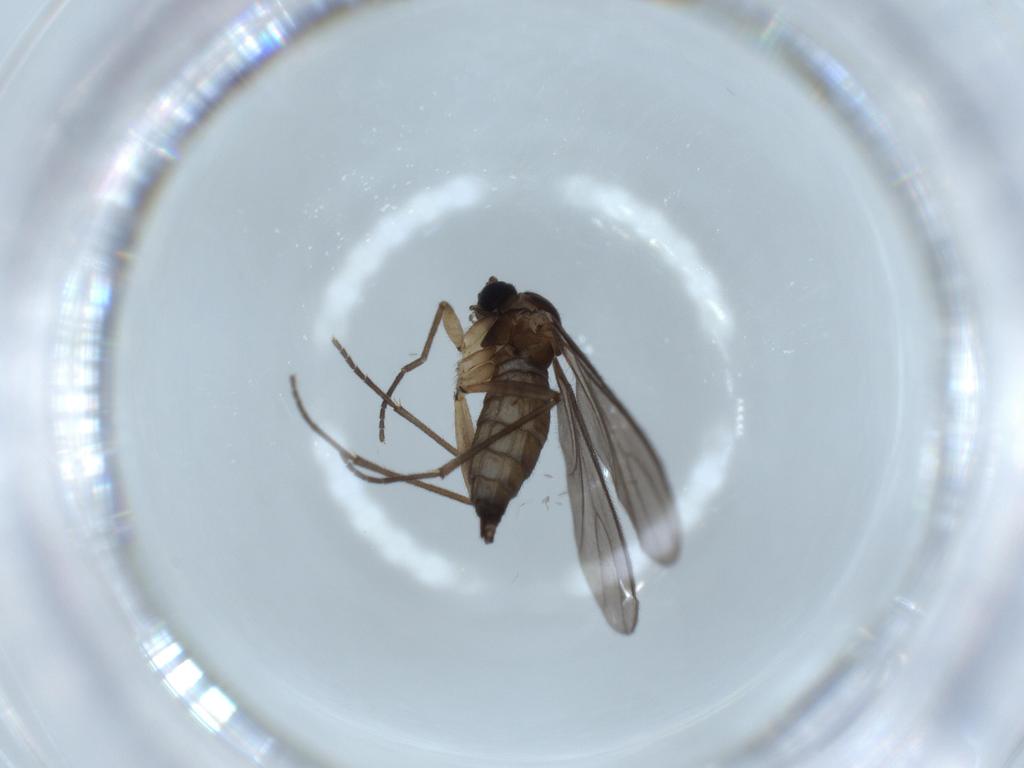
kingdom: Animalia
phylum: Arthropoda
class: Insecta
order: Diptera
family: Sciaridae
